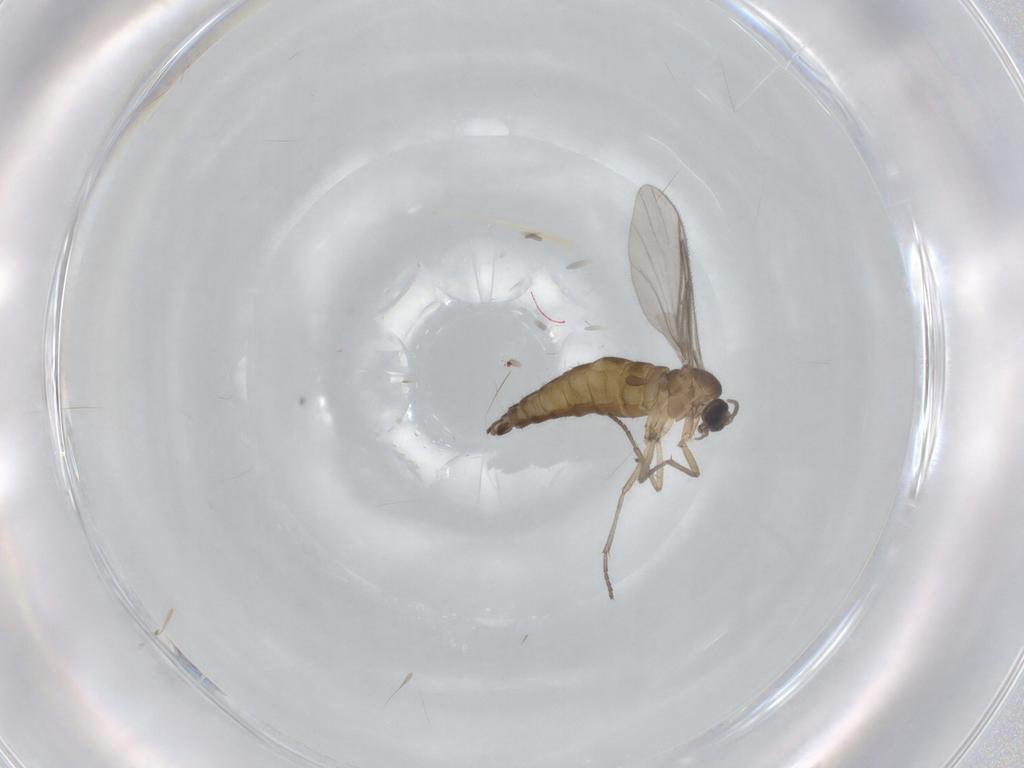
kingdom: Animalia
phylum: Arthropoda
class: Insecta
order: Diptera
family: Sciaridae
